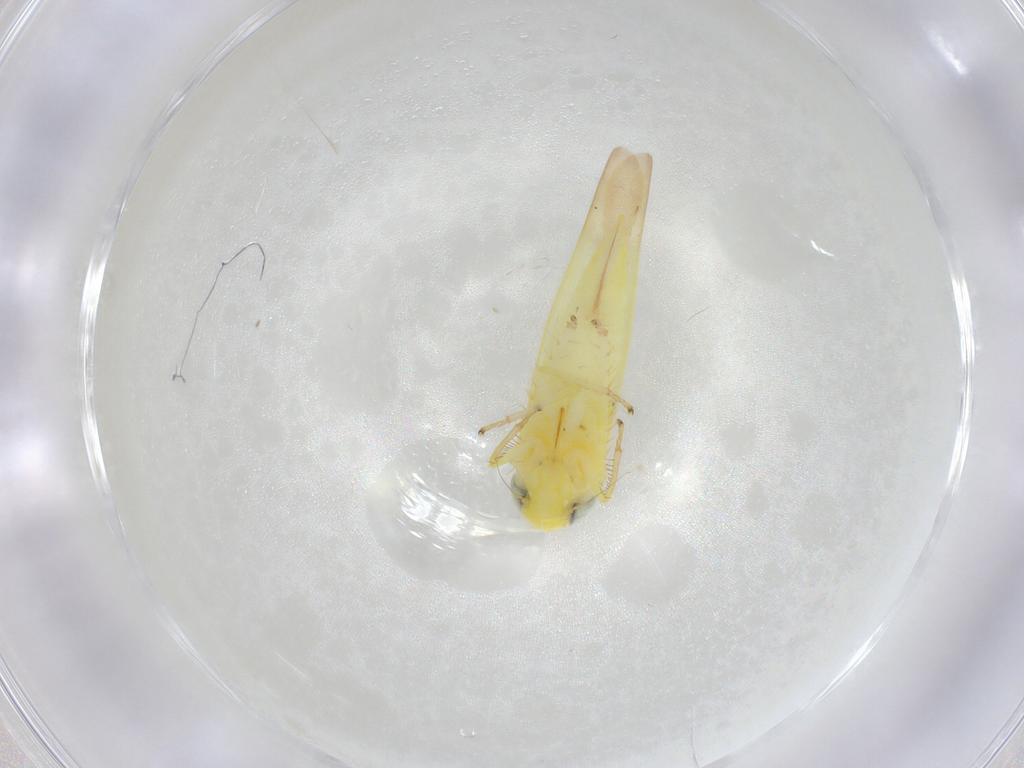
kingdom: Animalia
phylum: Arthropoda
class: Insecta
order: Hemiptera
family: Cicadellidae
